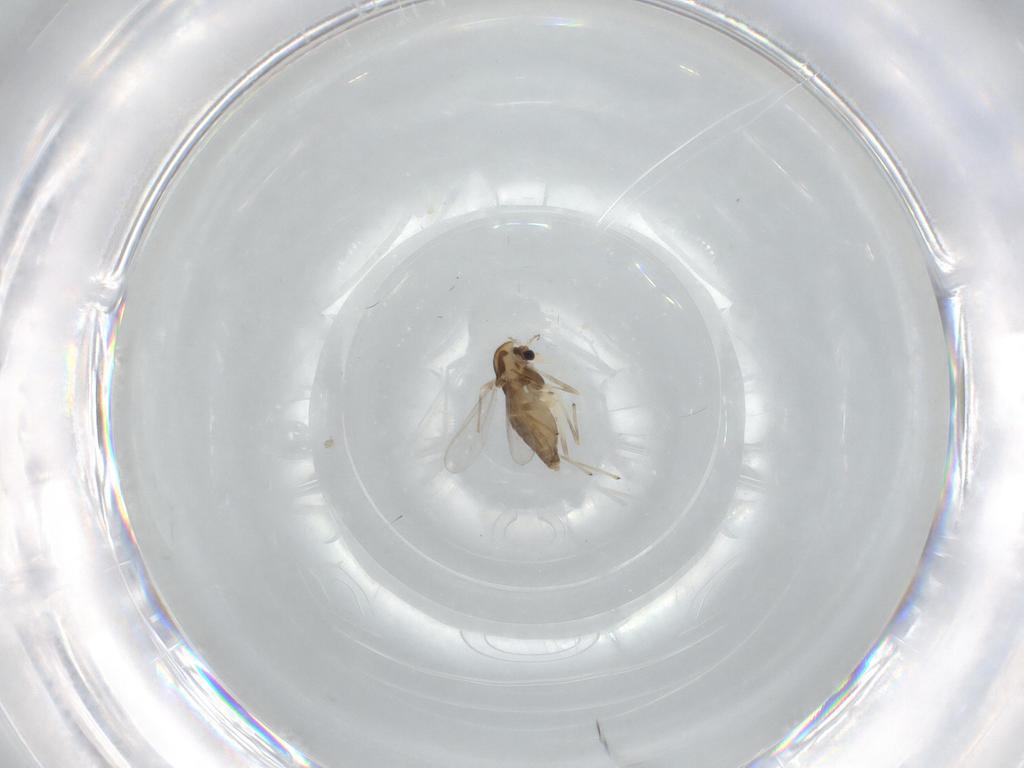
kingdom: Animalia
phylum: Arthropoda
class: Insecta
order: Diptera
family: Chironomidae
